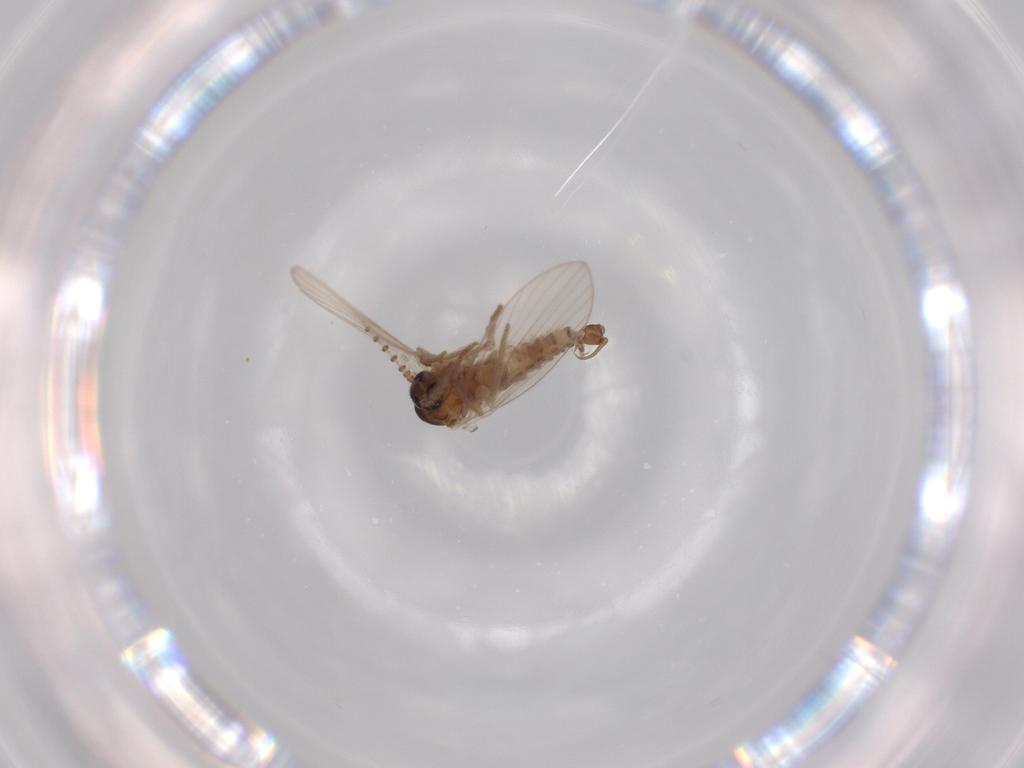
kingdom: Animalia
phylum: Arthropoda
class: Insecta
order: Diptera
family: Psychodidae
